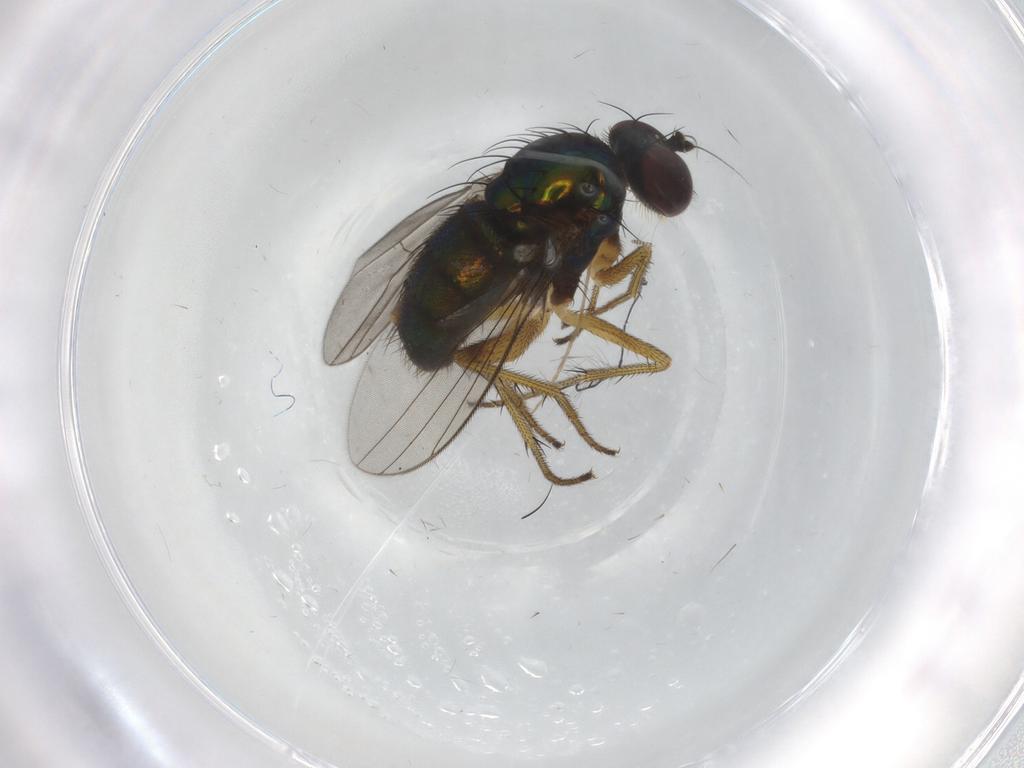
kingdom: Animalia
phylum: Arthropoda
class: Insecta
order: Diptera
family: Dolichopodidae
